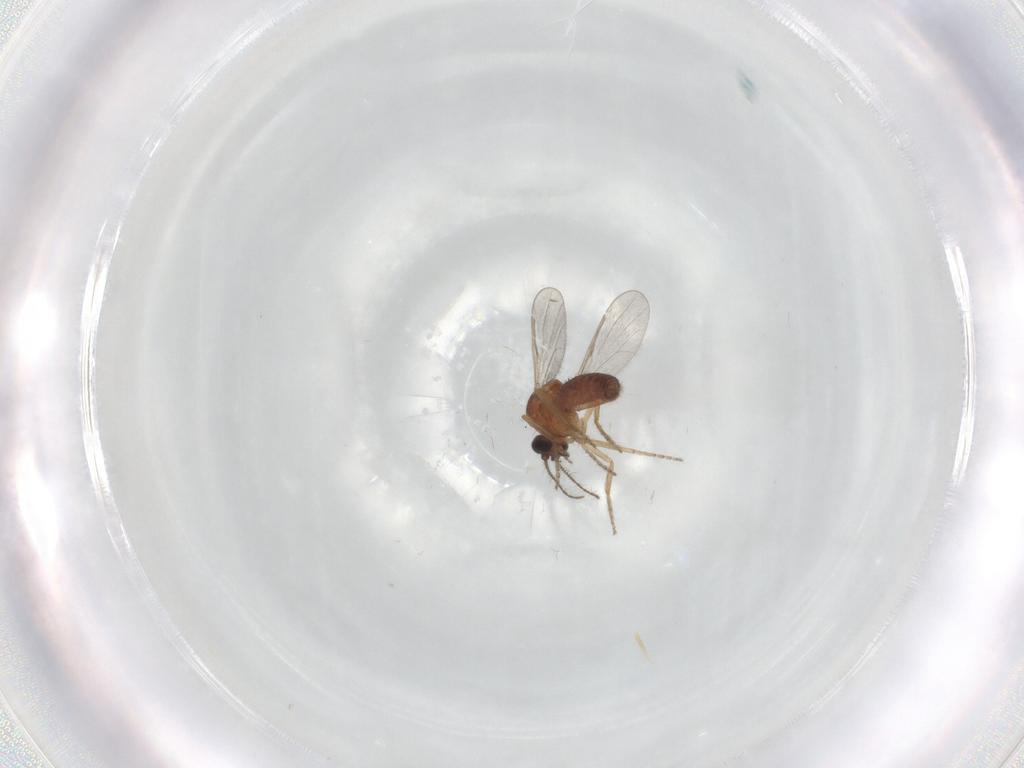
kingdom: Animalia
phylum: Arthropoda
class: Insecta
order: Diptera
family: Ceratopogonidae
